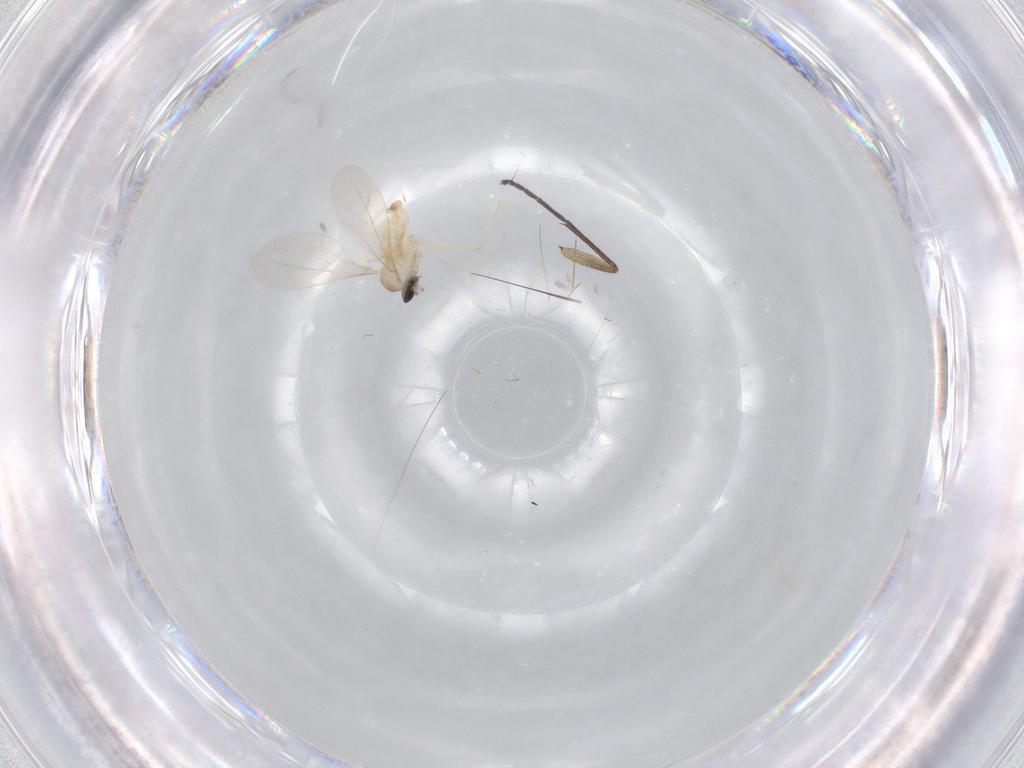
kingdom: Animalia
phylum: Arthropoda
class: Insecta
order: Diptera
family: Cecidomyiidae
